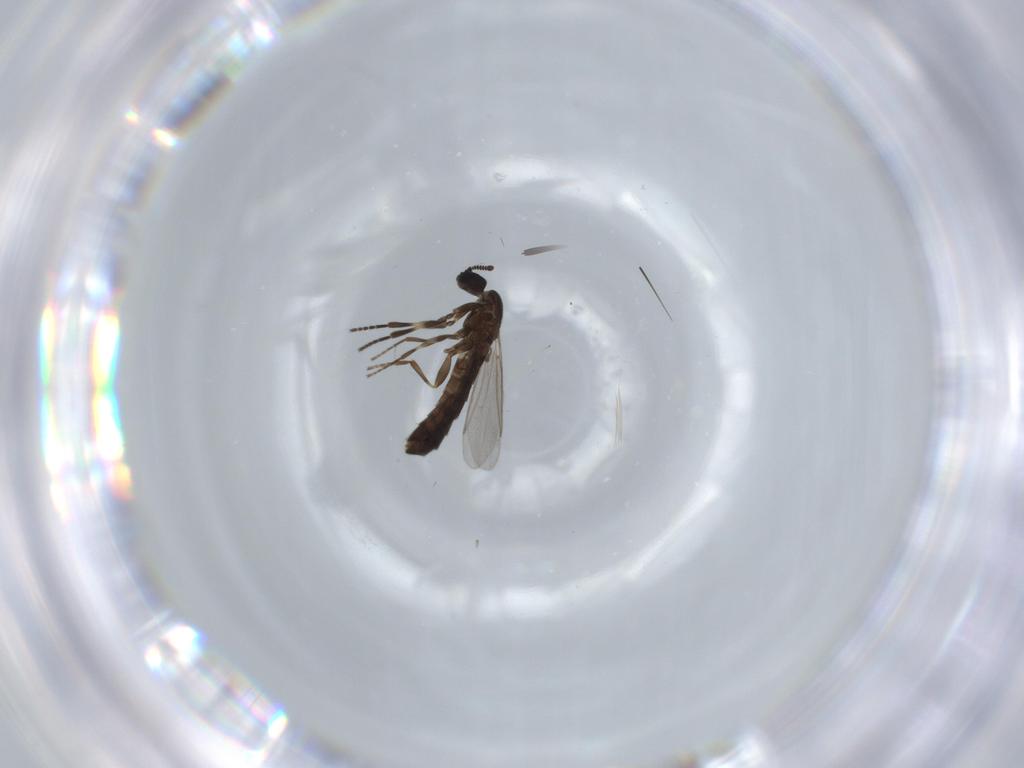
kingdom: Animalia
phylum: Arthropoda
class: Insecta
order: Diptera
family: Scatopsidae
